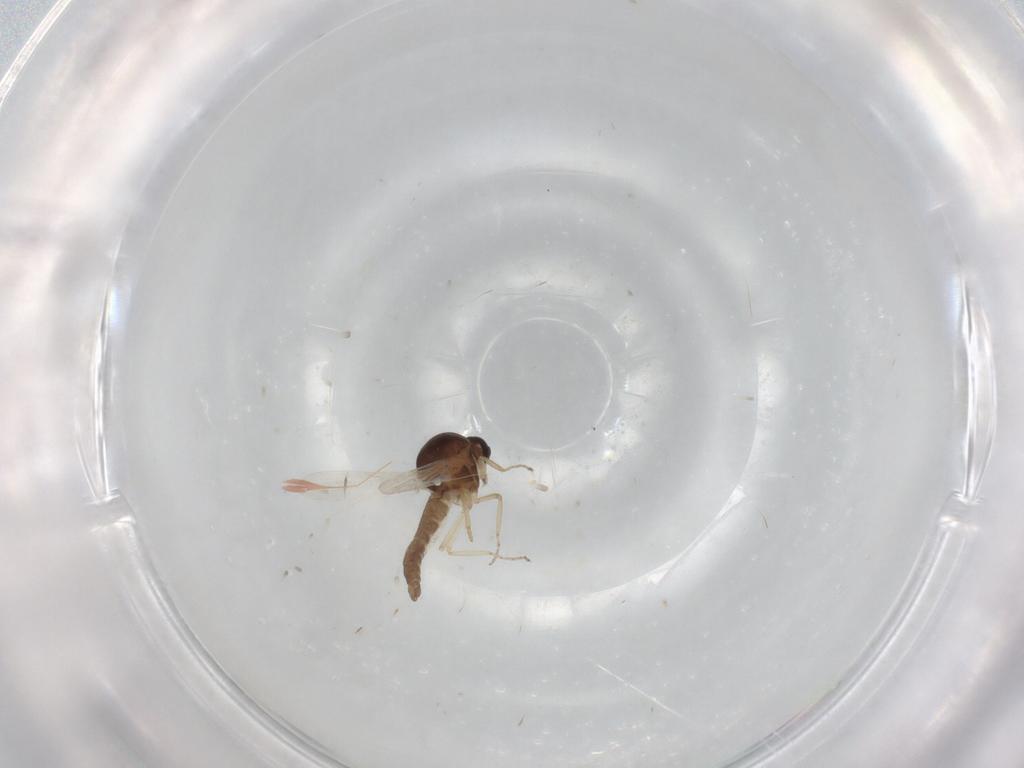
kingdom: Animalia
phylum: Arthropoda
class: Insecta
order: Diptera
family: Ceratopogonidae
